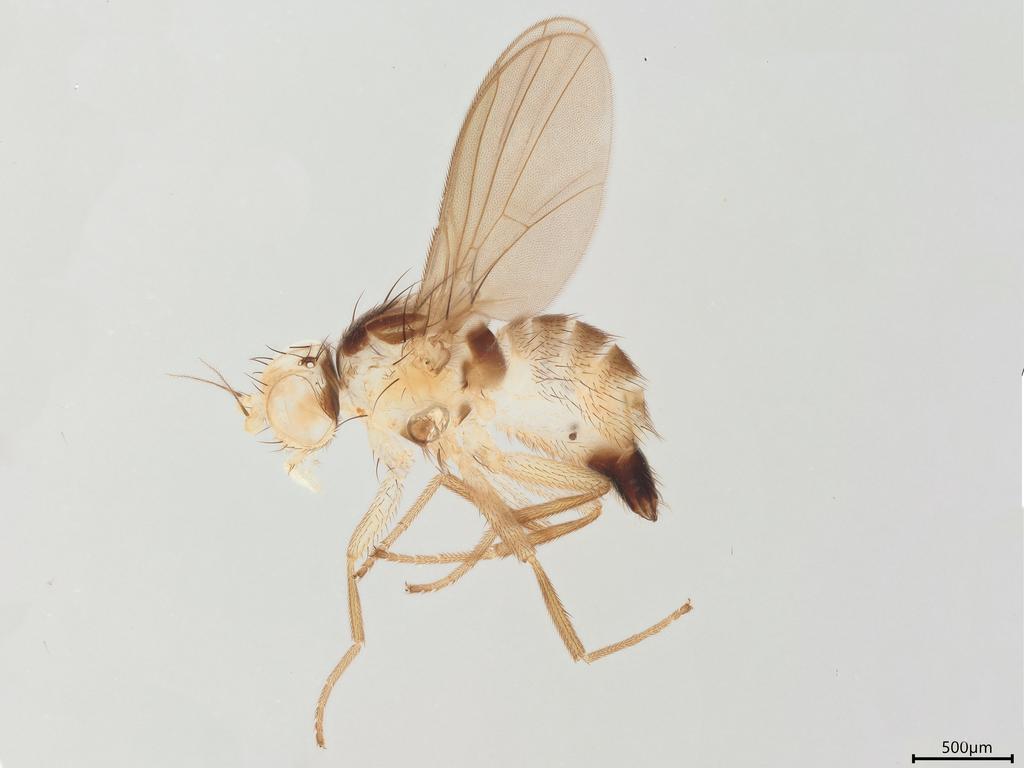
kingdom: Animalia
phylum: Arthropoda
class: Insecta
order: Diptera
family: Agromyzidae
